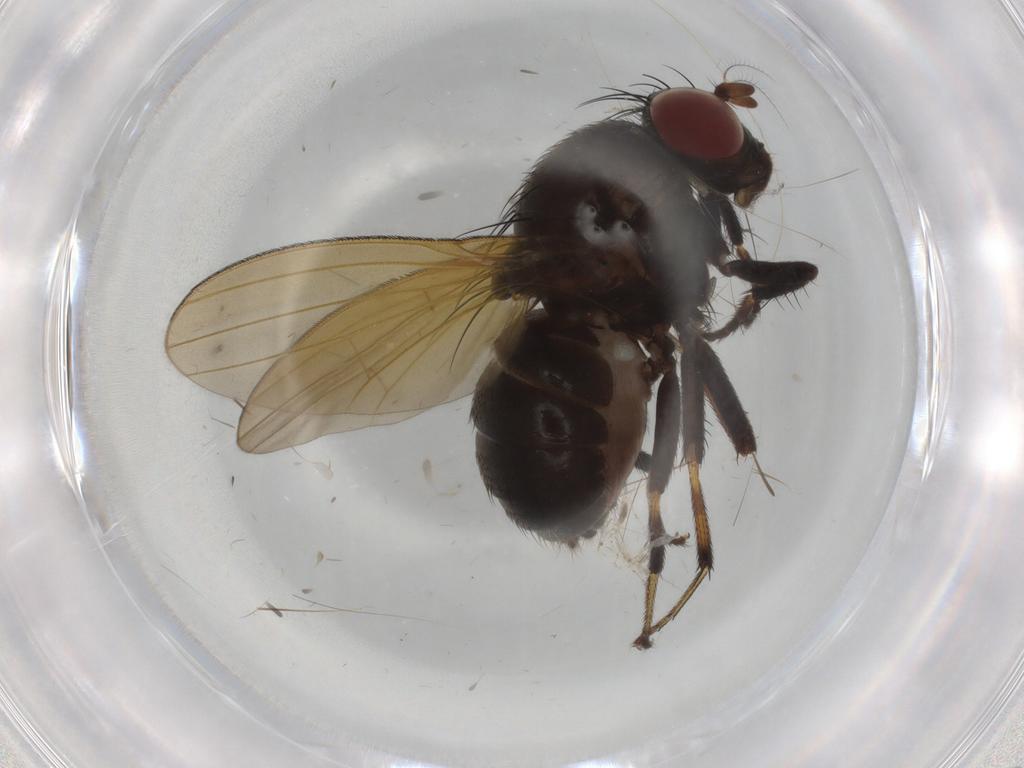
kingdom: Animalia
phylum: Arthropoda
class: Insecta
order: Diptera
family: Lauxaniidae
